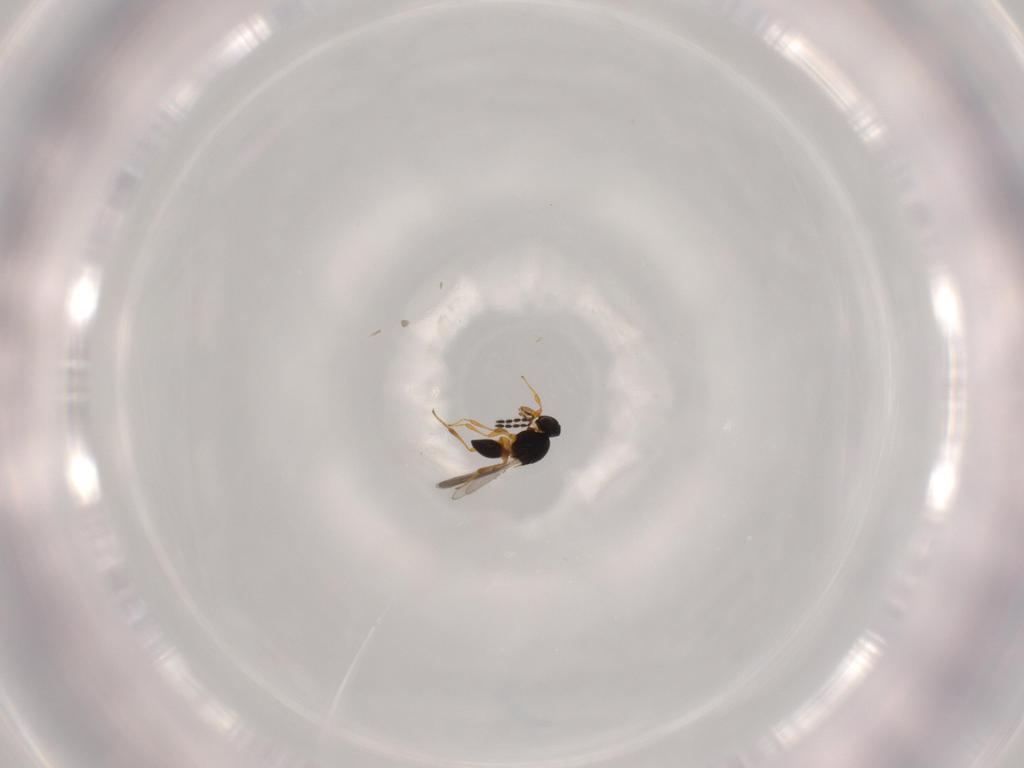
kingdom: Animalia
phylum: Arthropoda
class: Insecta
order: Hymenoptera
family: Platygastridae
